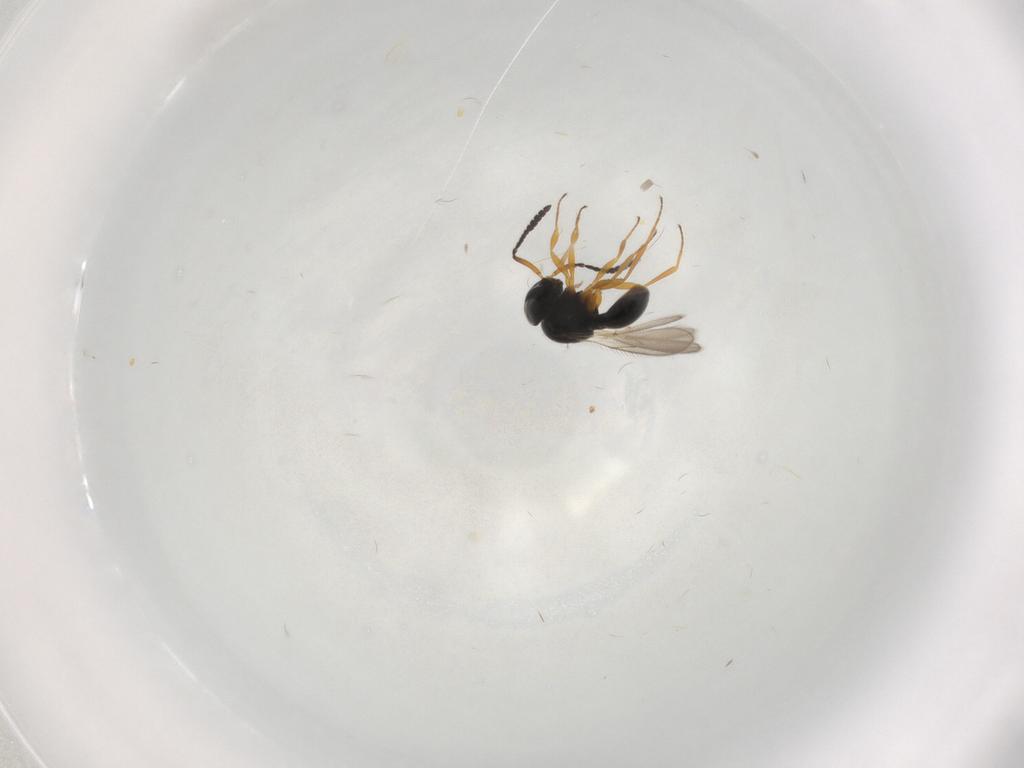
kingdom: Animalia
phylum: Arthropoda
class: Insecta
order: Hymenoptera
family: Scelionidae
